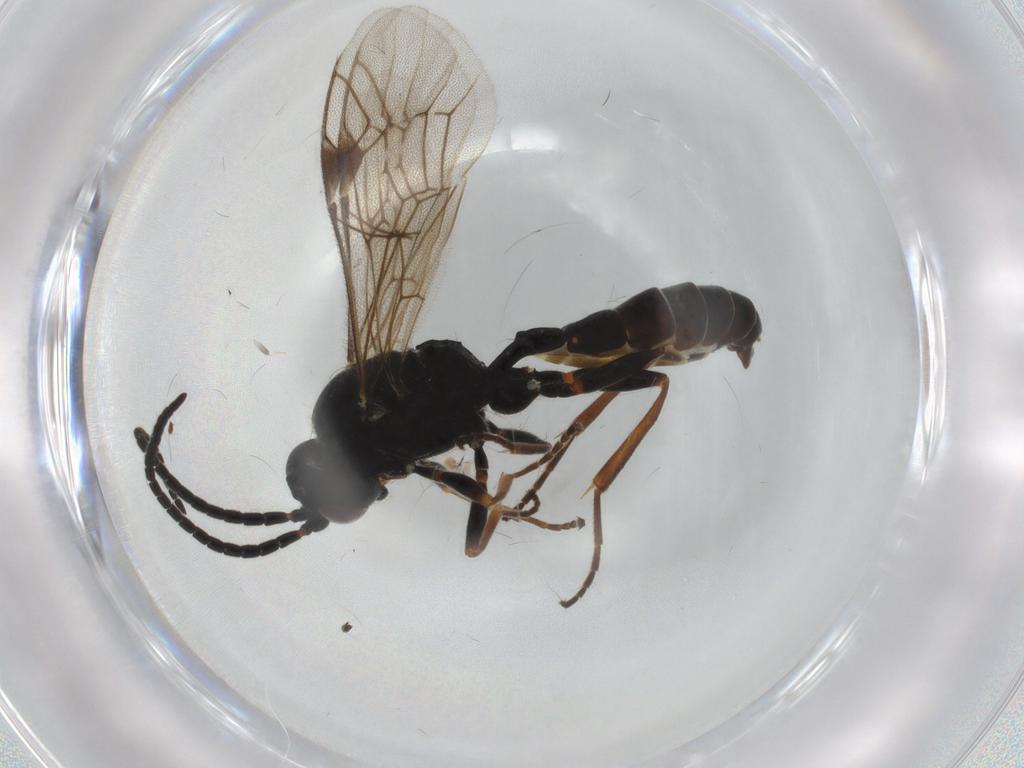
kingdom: Animalia
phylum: Arthropoda
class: Insecta
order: Hymenoptera
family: Ichneumonidae
